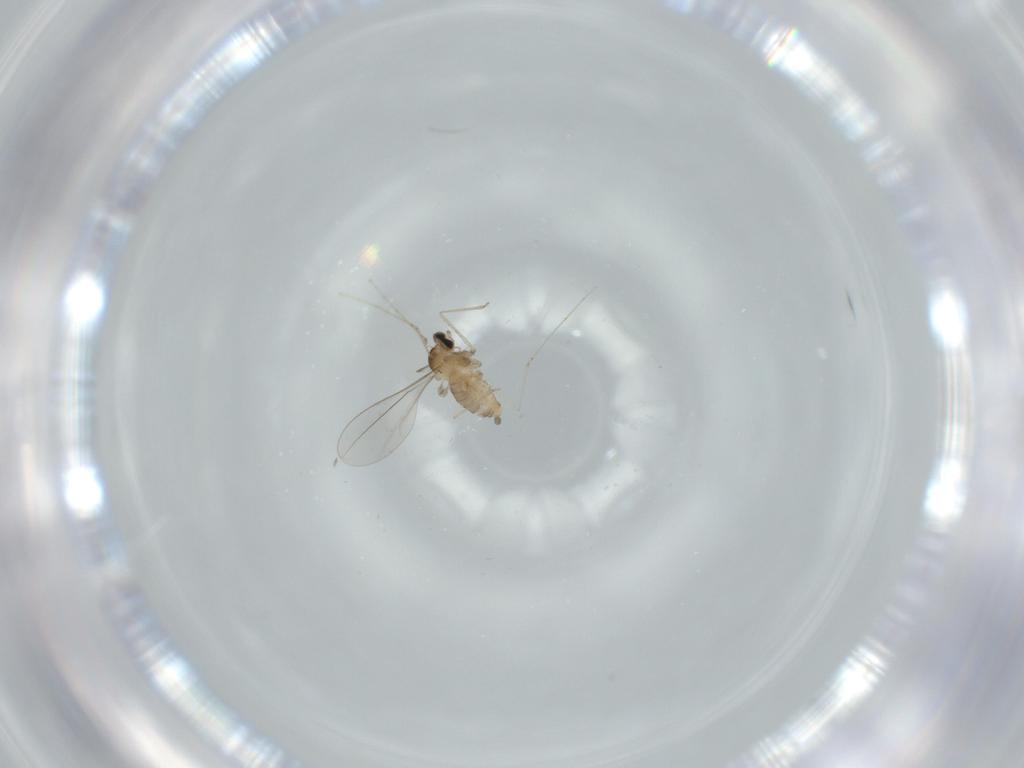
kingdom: Animalia
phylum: Arthropoda
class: Insecta
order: Diptera
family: Cecidomyiidae
